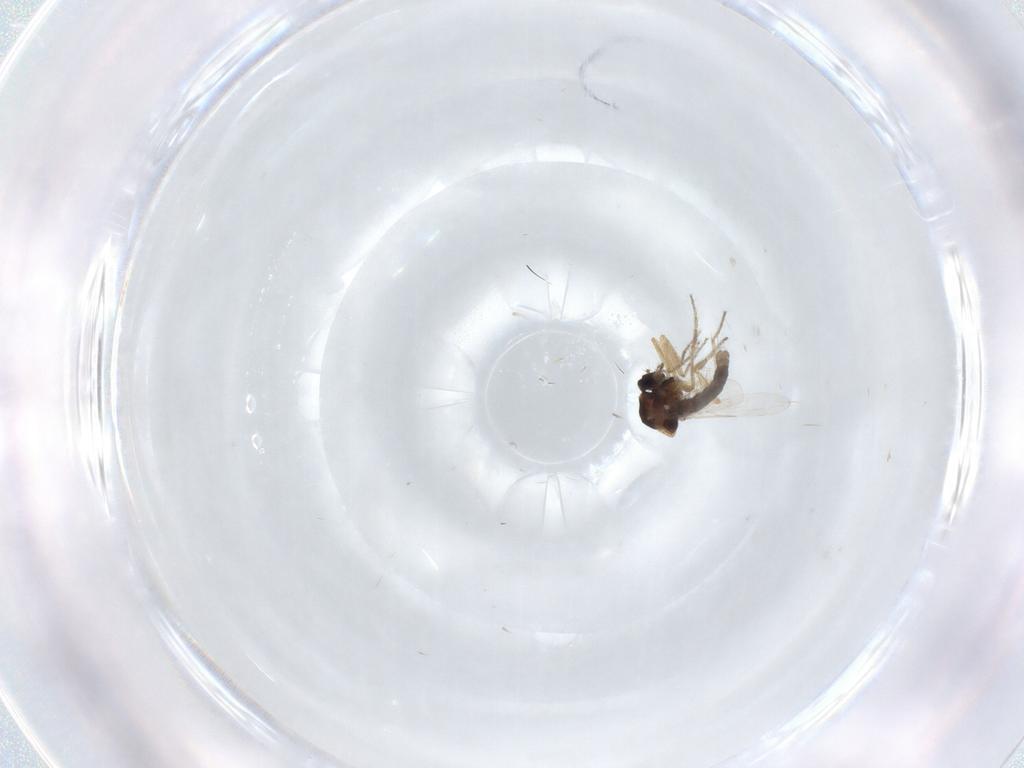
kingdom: Animalia
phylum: Arthropoda
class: Insecta
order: Diptera
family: Ceratopogonidae
